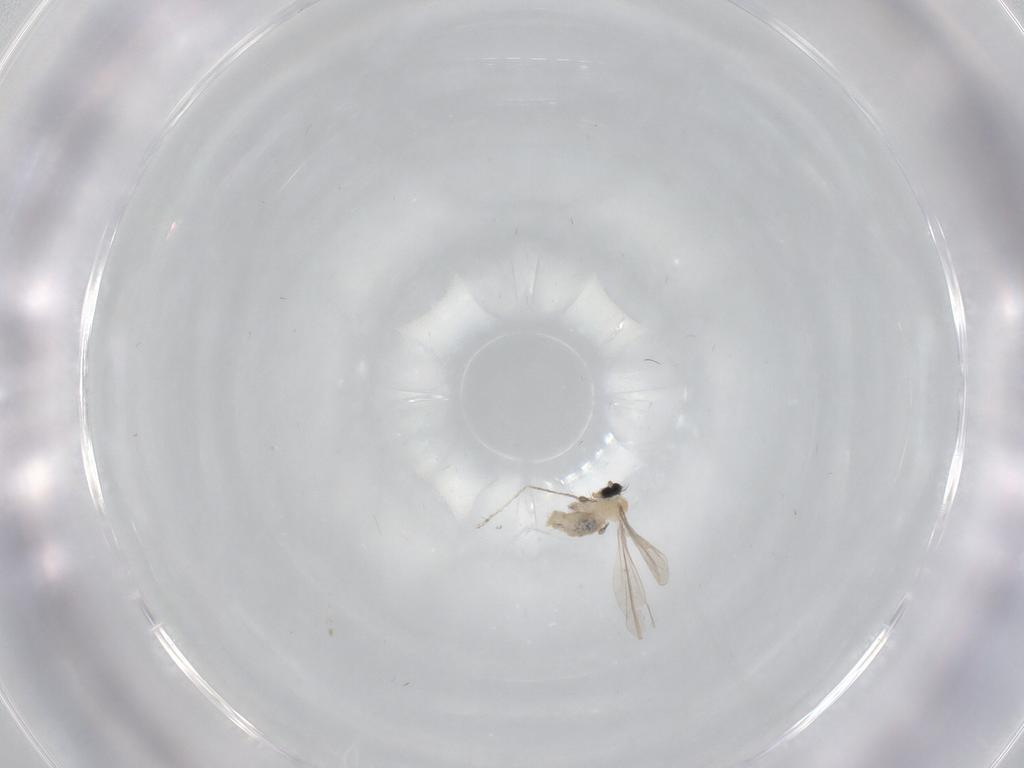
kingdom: Animalia
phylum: Arthropoda
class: Insecta
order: Diptera
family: Cecidomyiidae
